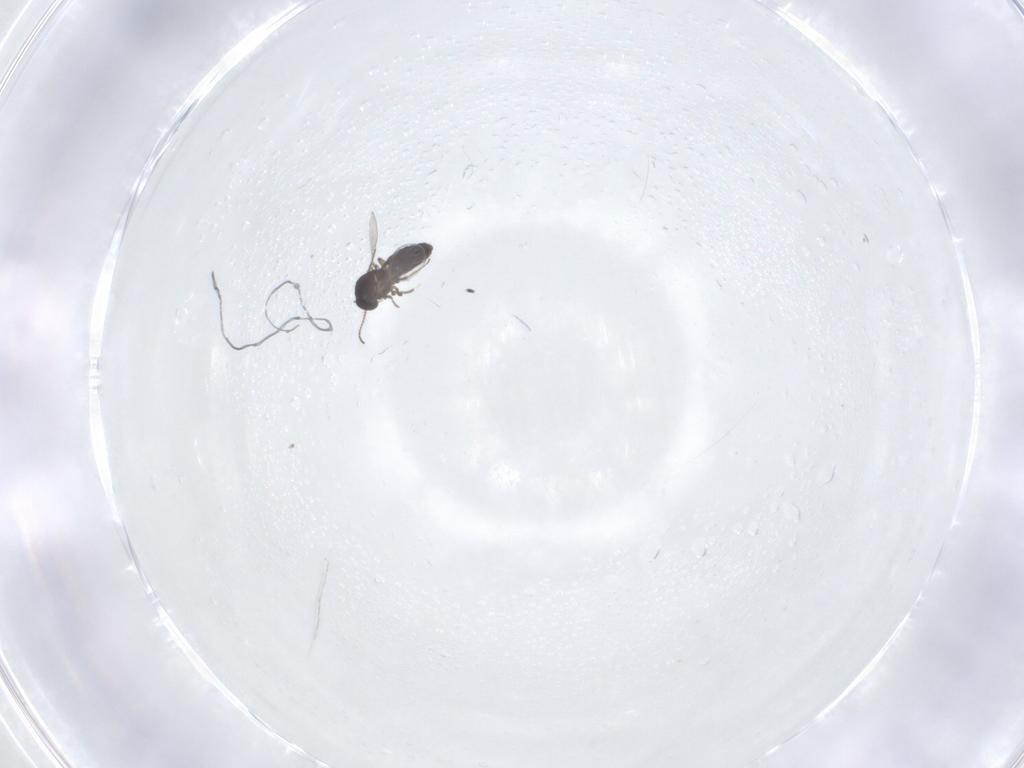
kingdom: Animalia
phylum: Arthropoda
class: Insecta
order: Diptera
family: Ceratopogonidae
